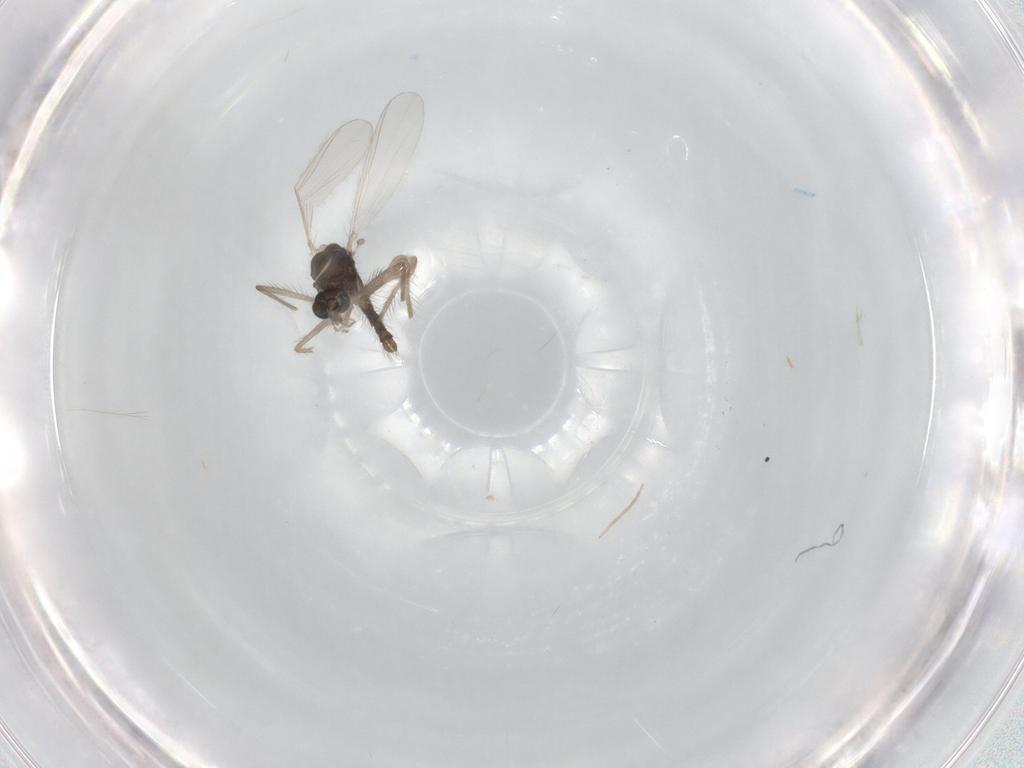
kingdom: Animalia
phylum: Arthropoda
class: Insecta
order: Diptera
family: Chironomidae
